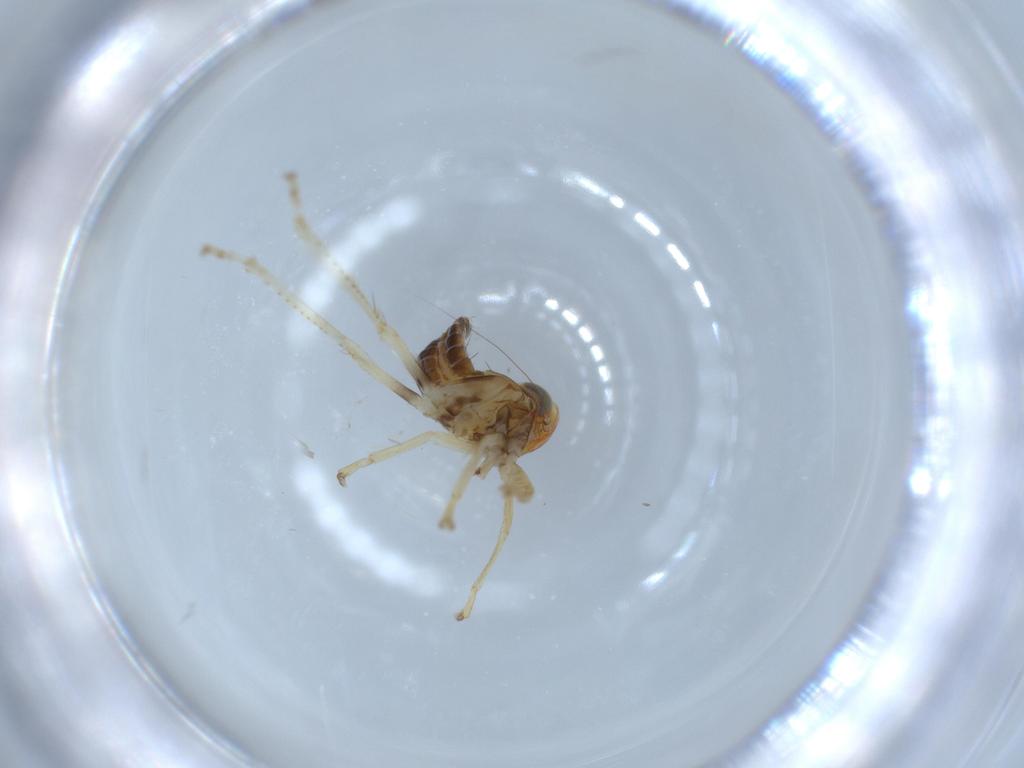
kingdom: Animalia
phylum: Arthropoda
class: Insecta
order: Hemiptera
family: Cicadellidae
